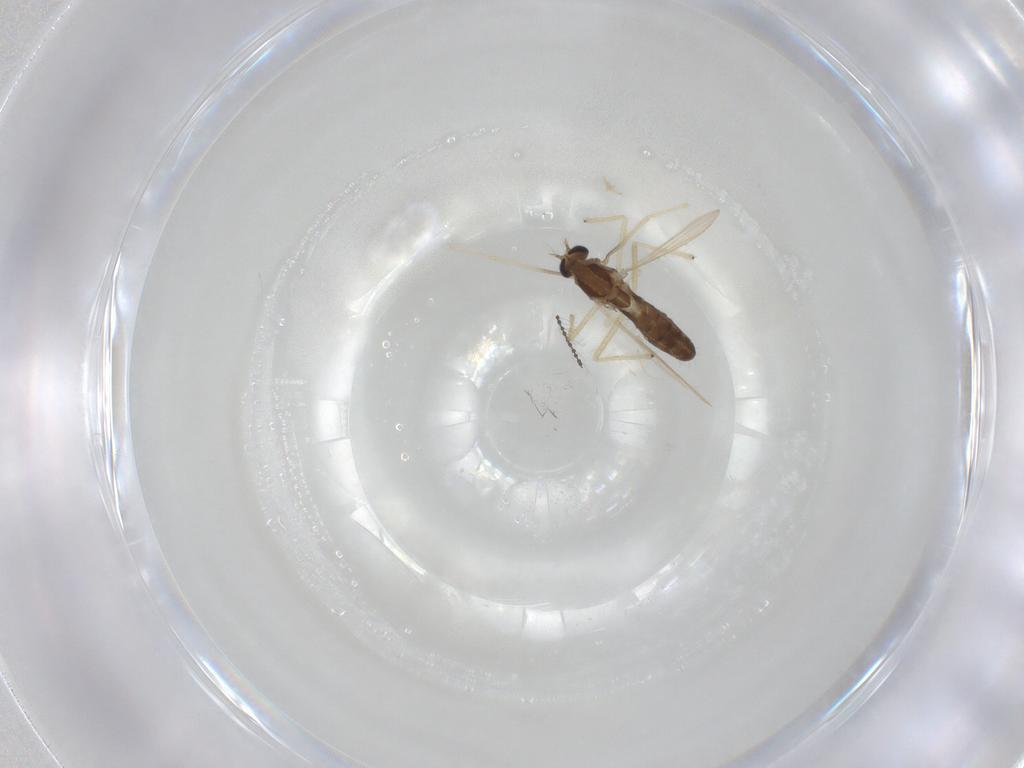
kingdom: Animalia
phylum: Arthropoda
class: Insecta
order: Diptera
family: Chironomidae
